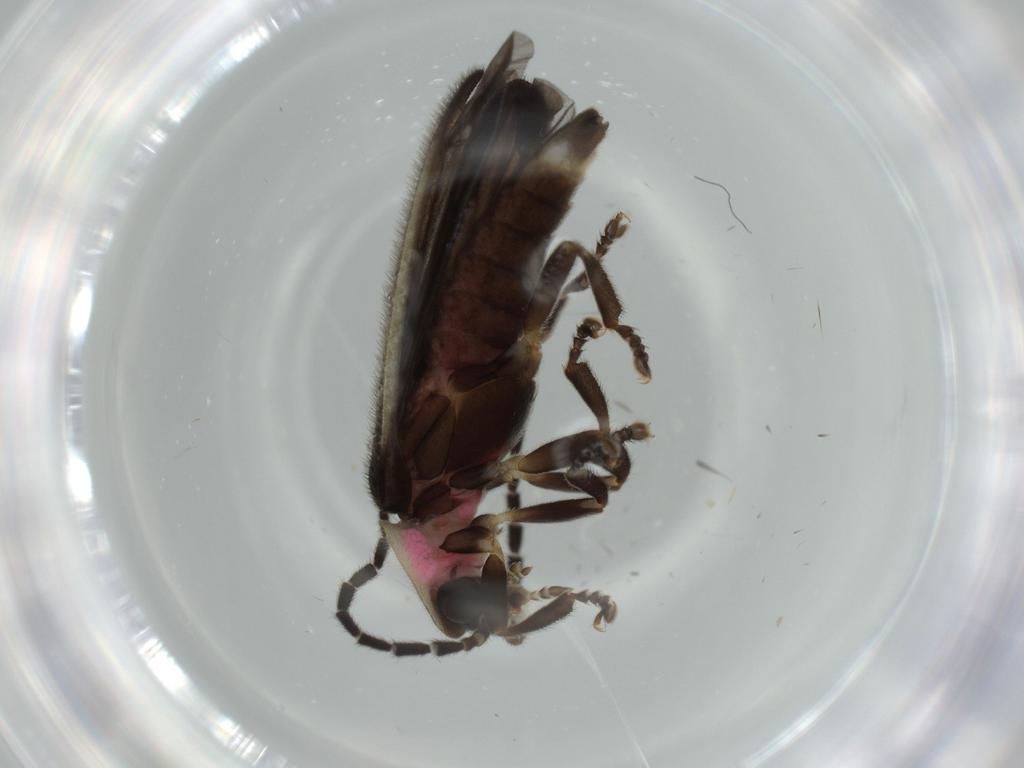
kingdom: Animalia
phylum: Arthropoda
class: Insecta
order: Coleoptera
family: Lampyridae
